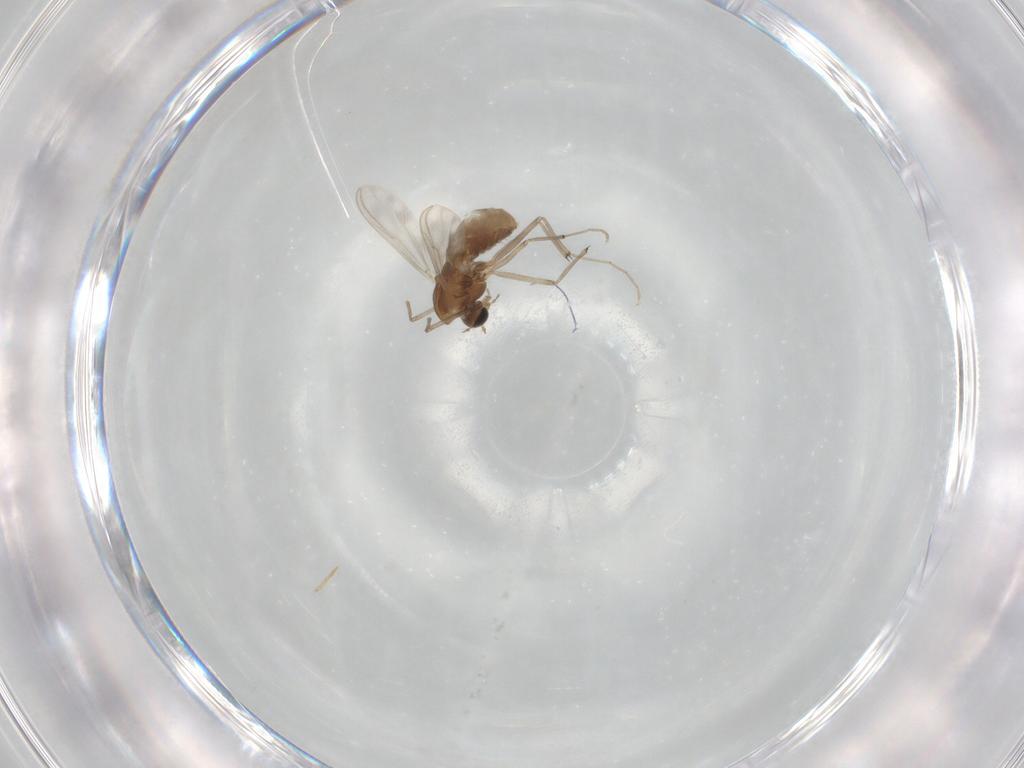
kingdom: Animalia
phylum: Arthropoda
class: Insecta
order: Diptera
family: Chironomidae
